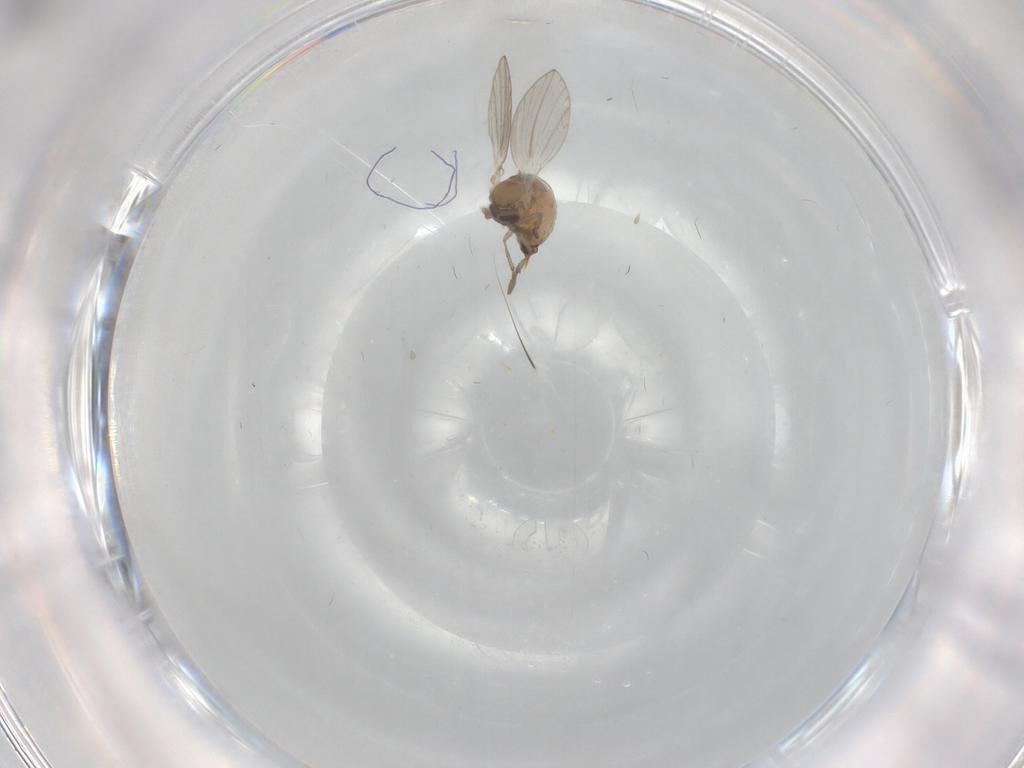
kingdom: Animalia
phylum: Arthropoda
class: Insecta
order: Diptera
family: Psychodidae
